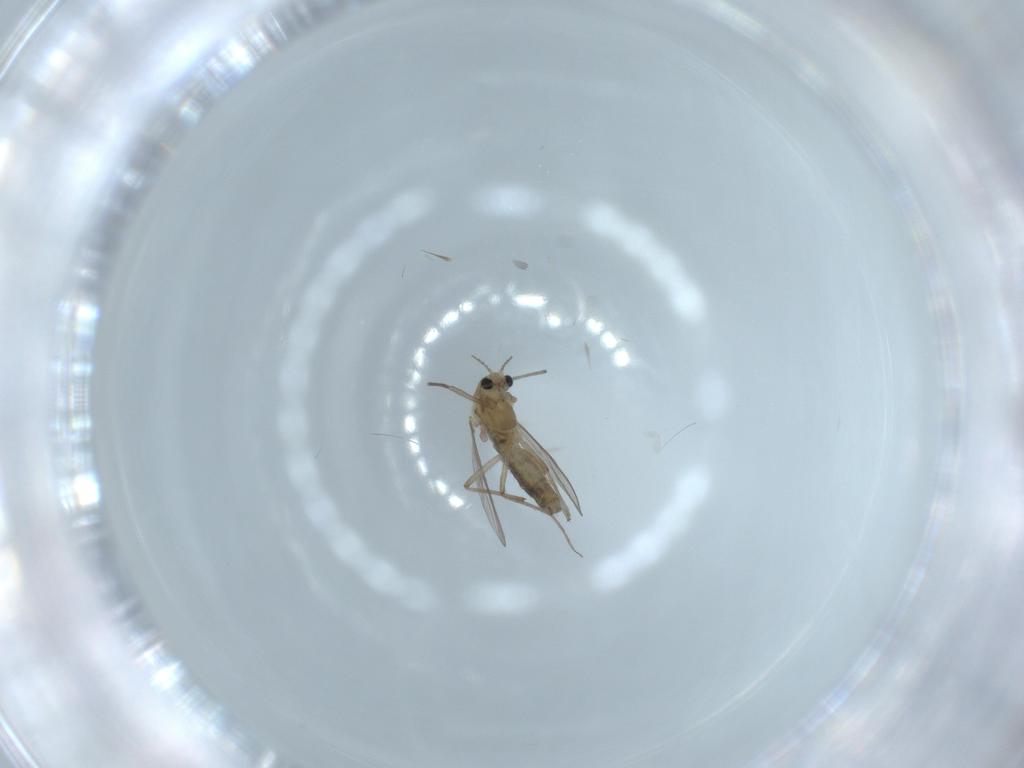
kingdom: Animalia
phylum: Arthropoda
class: Insecta
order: Diptera
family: Chironomidae
